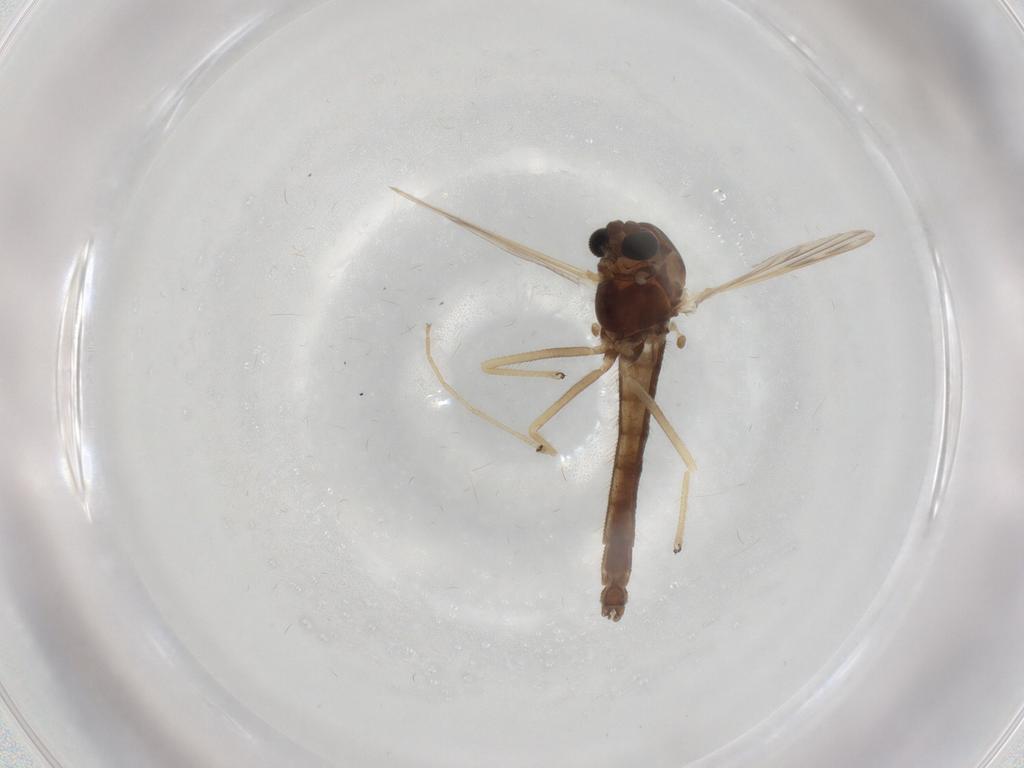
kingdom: Animalia
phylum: Arthropoda
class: Insecta
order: Diptera
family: Chironomidae
